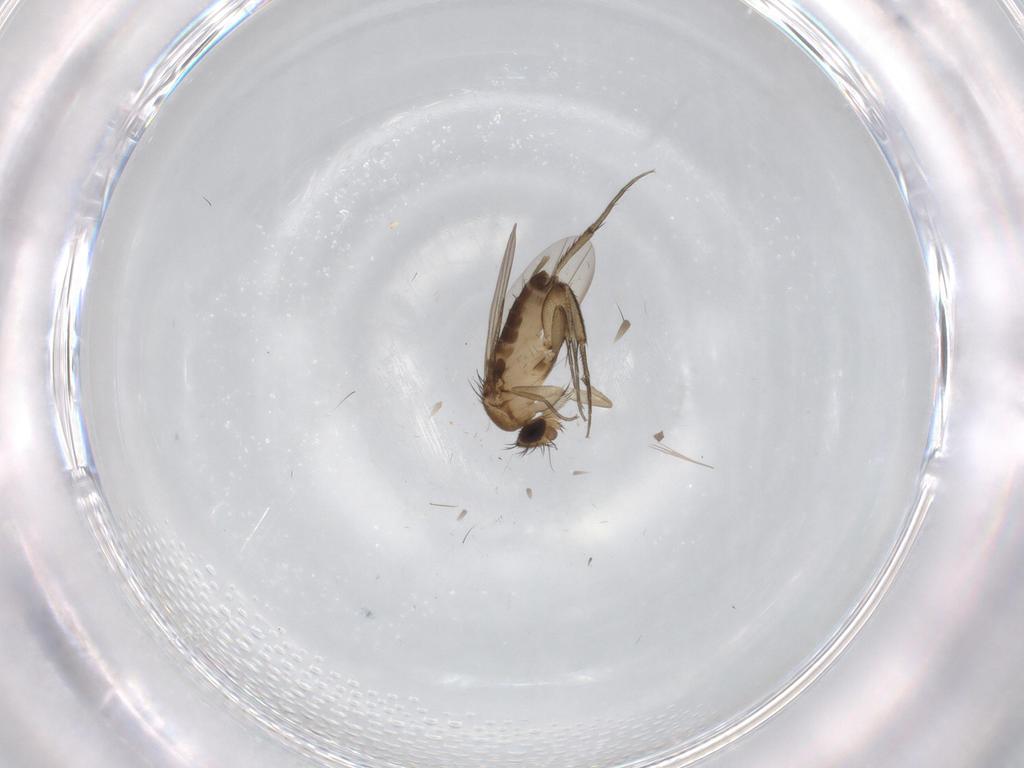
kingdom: Animalia
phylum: Arthropoda
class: Insecta
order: Diptera
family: Phoridae
